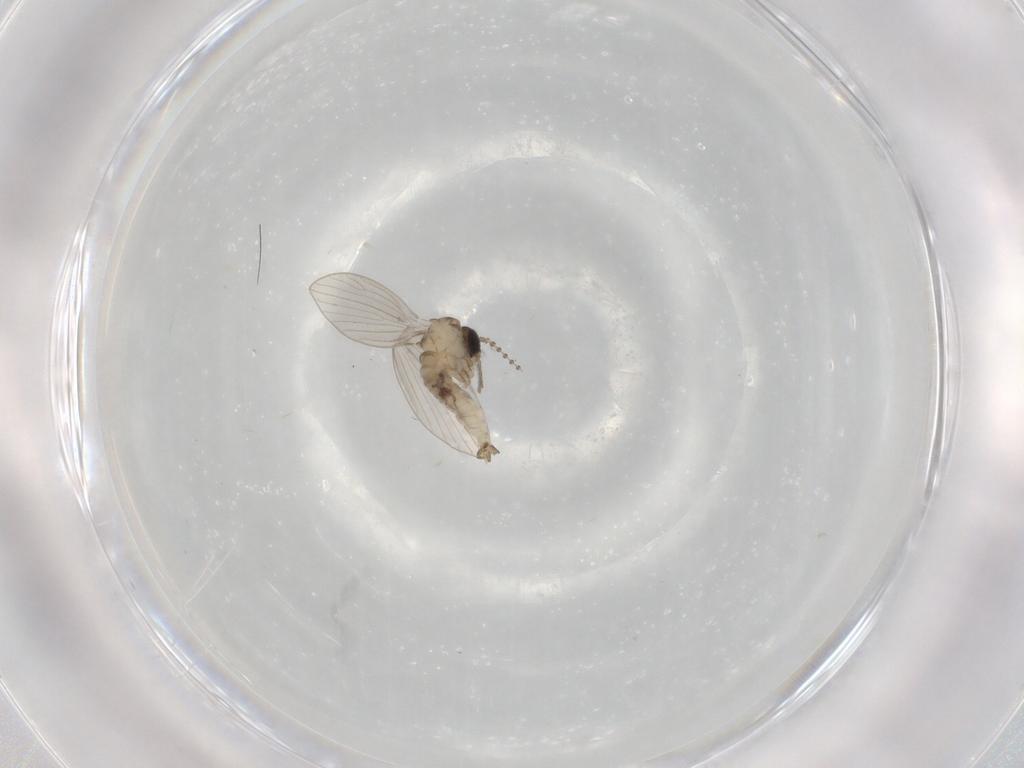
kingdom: Animalia
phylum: Arthropoda
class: Insecta
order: Diptera
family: Psychodidae
